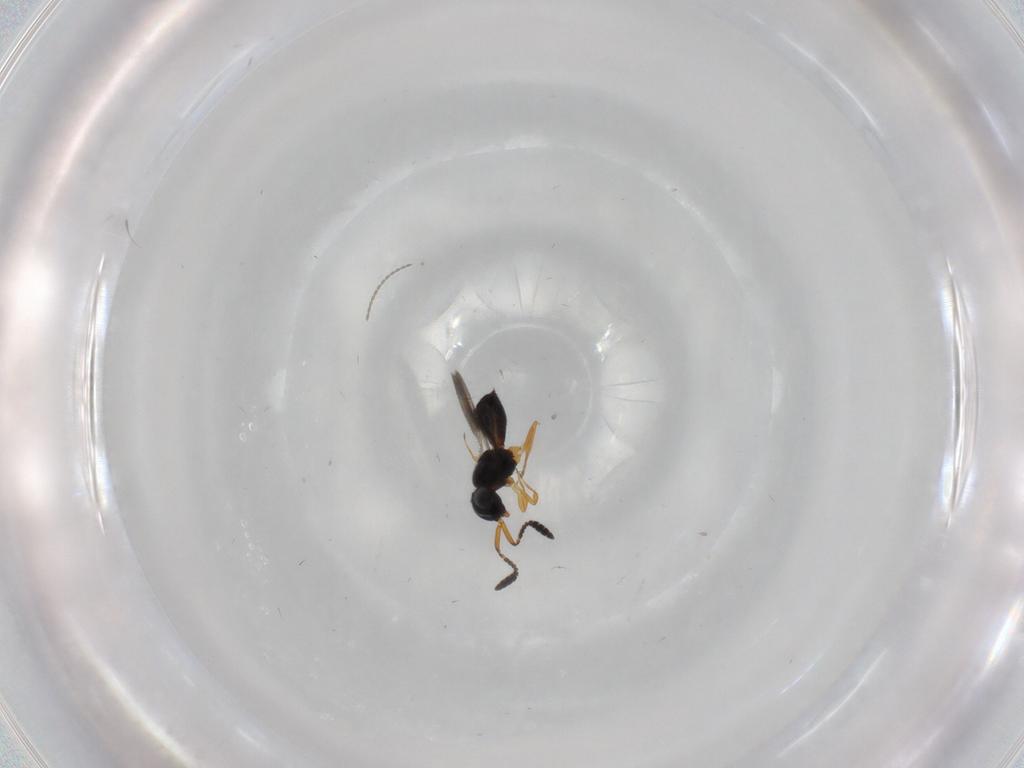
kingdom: Animalia
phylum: Arthropoda
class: Insecta
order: Hymenoptera
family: Scelionidae
